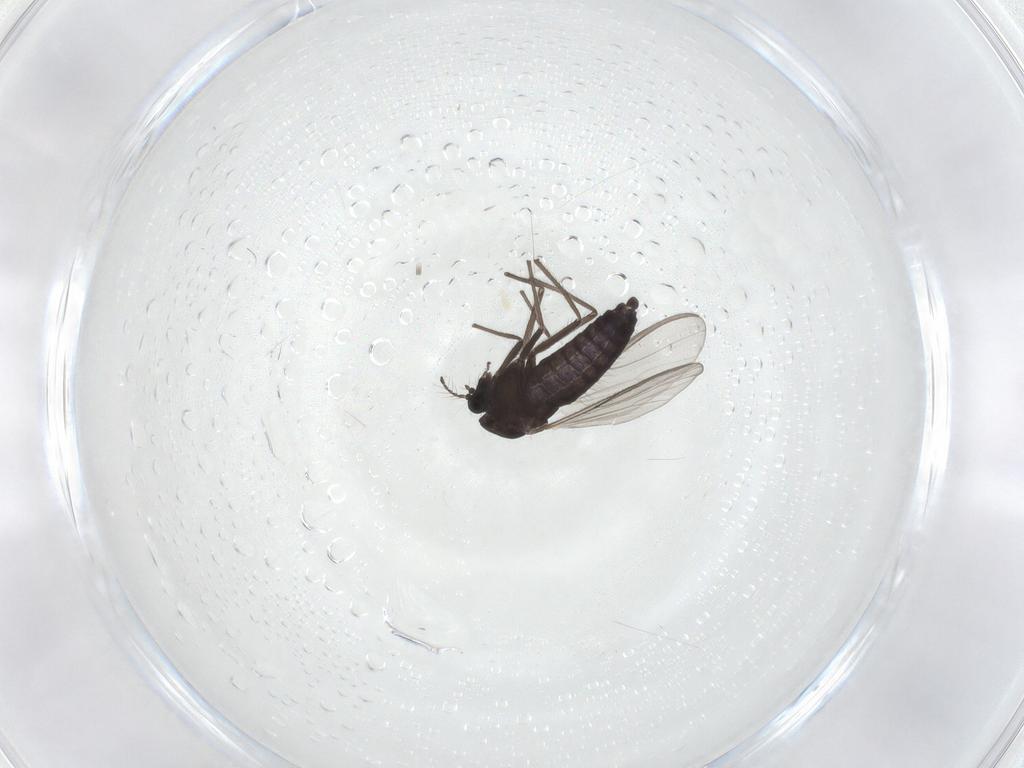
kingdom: Animalia
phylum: Arthropoda
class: Insecta
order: Diptera
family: Chironomidae
